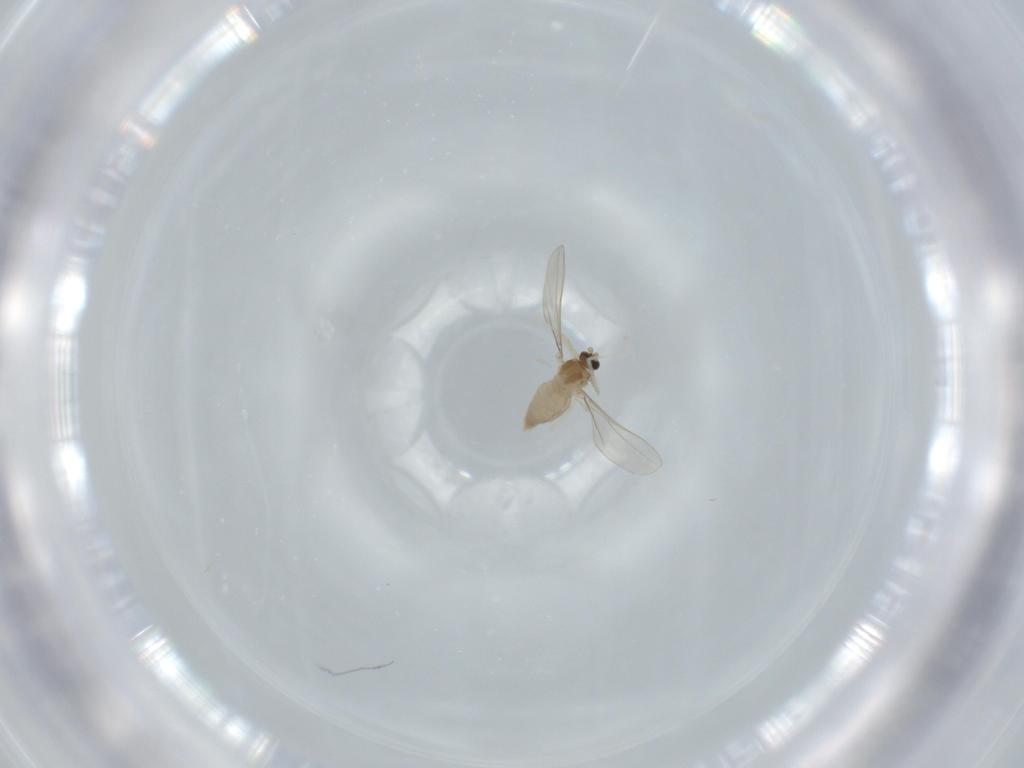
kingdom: Animalia
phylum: Arthropoda
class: Insecta
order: Diptera
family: Cecidomyiidae
